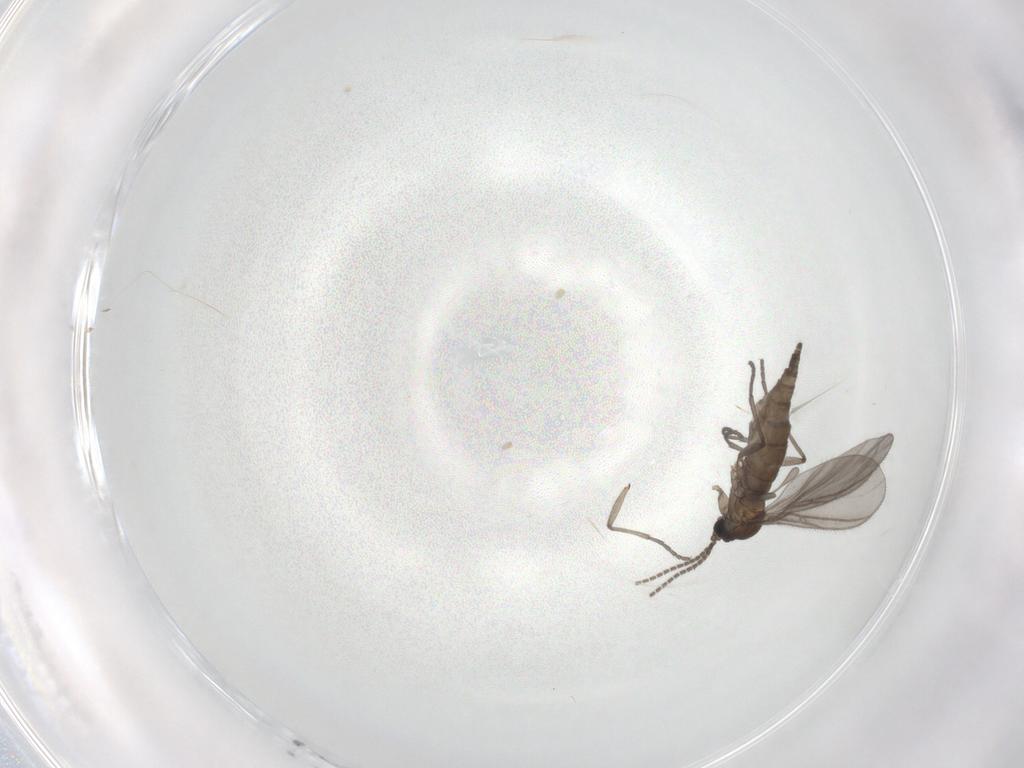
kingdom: Animalia
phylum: Arthropoda
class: Insecta
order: Diptera
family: Sciaridae
